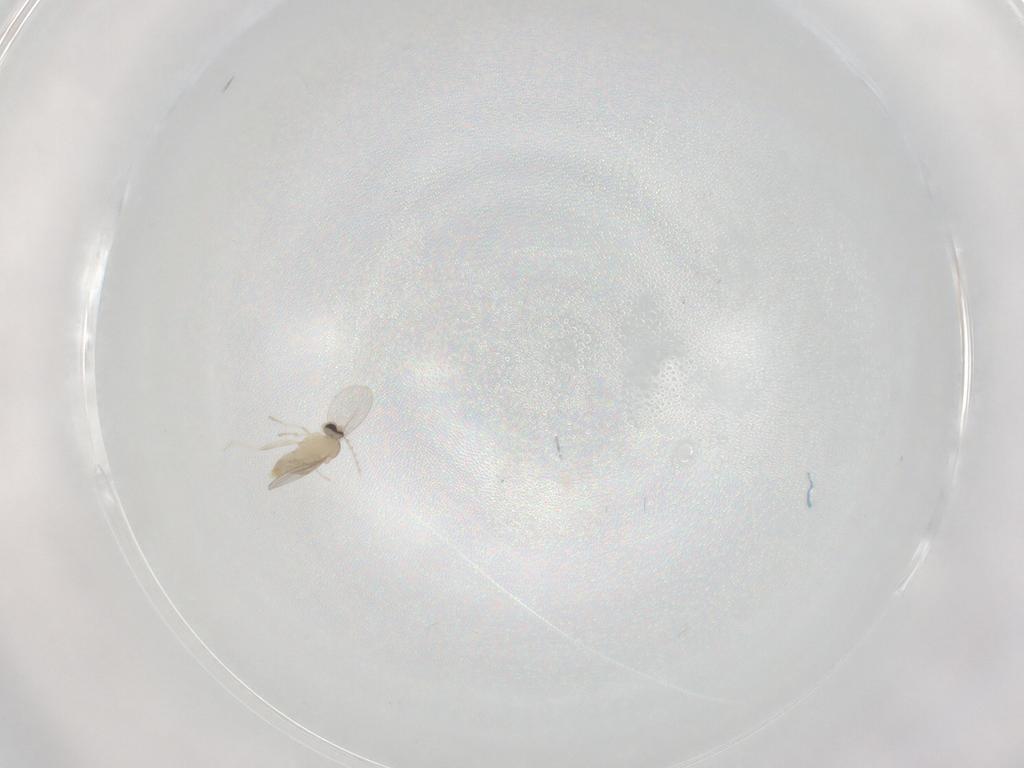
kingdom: Animalia
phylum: Arthropoda
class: Insecta
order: Diptera
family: Cecidomyiidae
